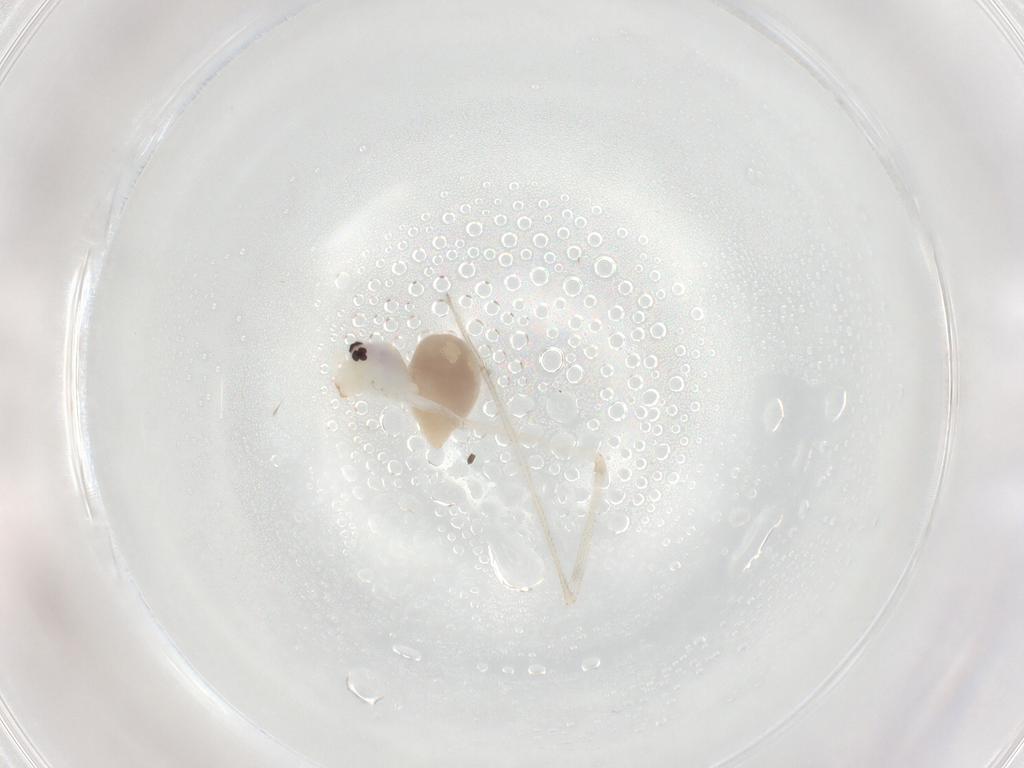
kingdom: Animalia
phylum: Arthropoda
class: Arachnida
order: Araneae
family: Pholcidae
